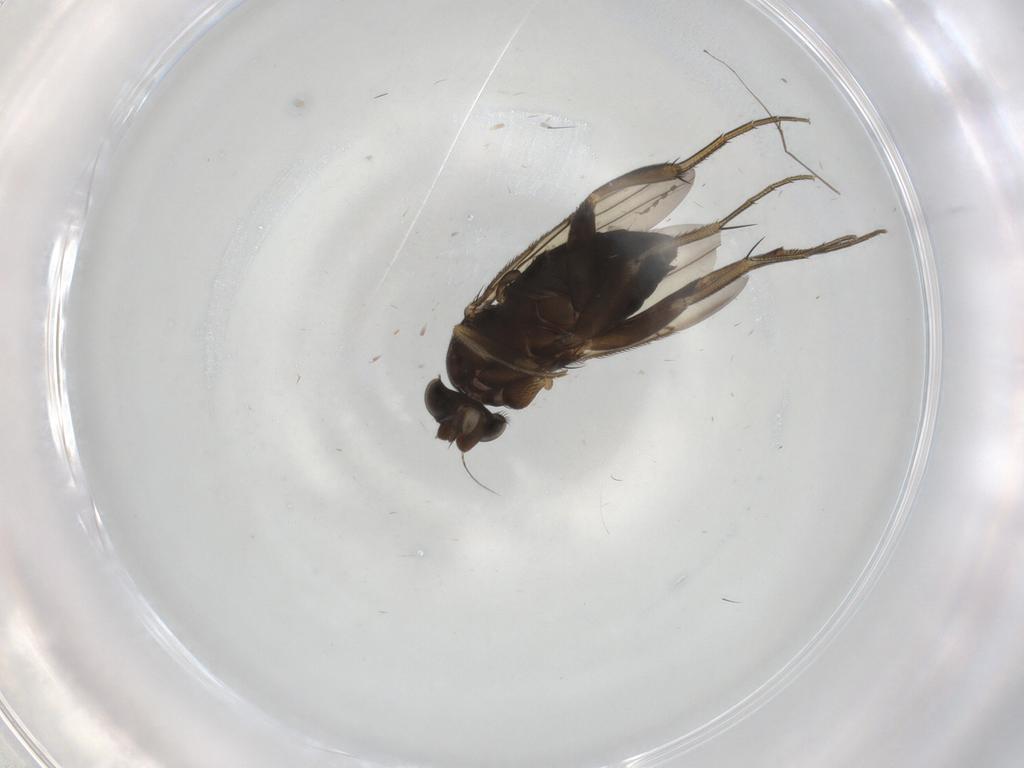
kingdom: Animalia
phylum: Arthropoda
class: Insecta
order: Diptera
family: Phoridae
